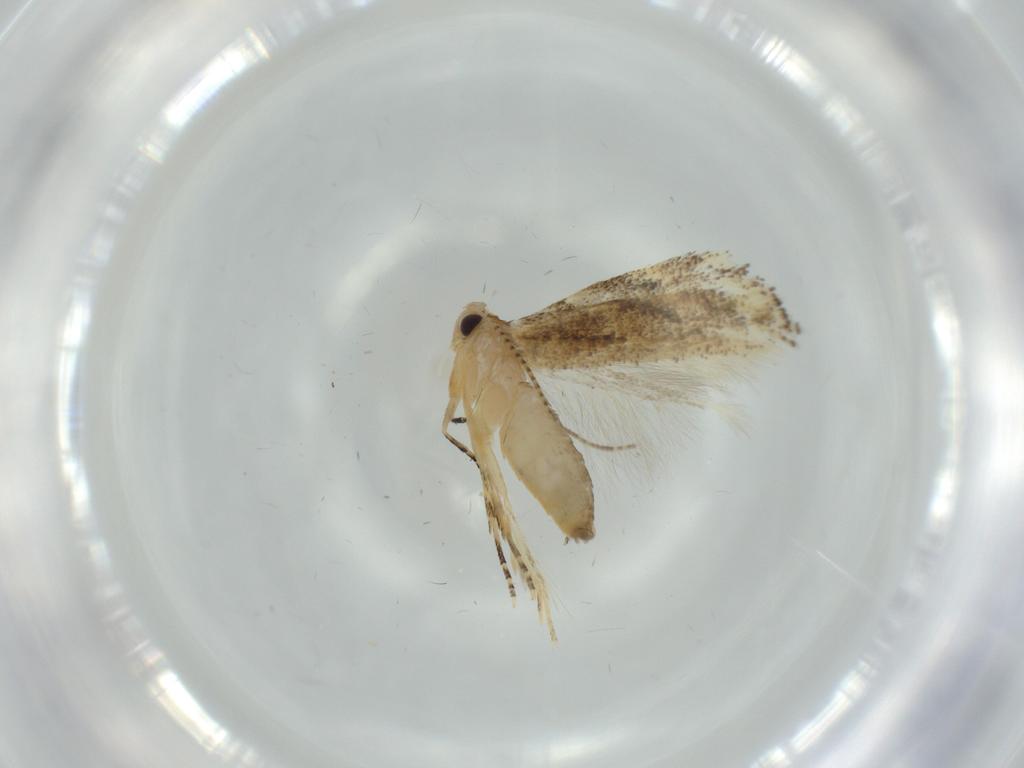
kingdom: Animalia
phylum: Arthropoda
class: Insecta
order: Lepidoptera
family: Bucculatricidae
